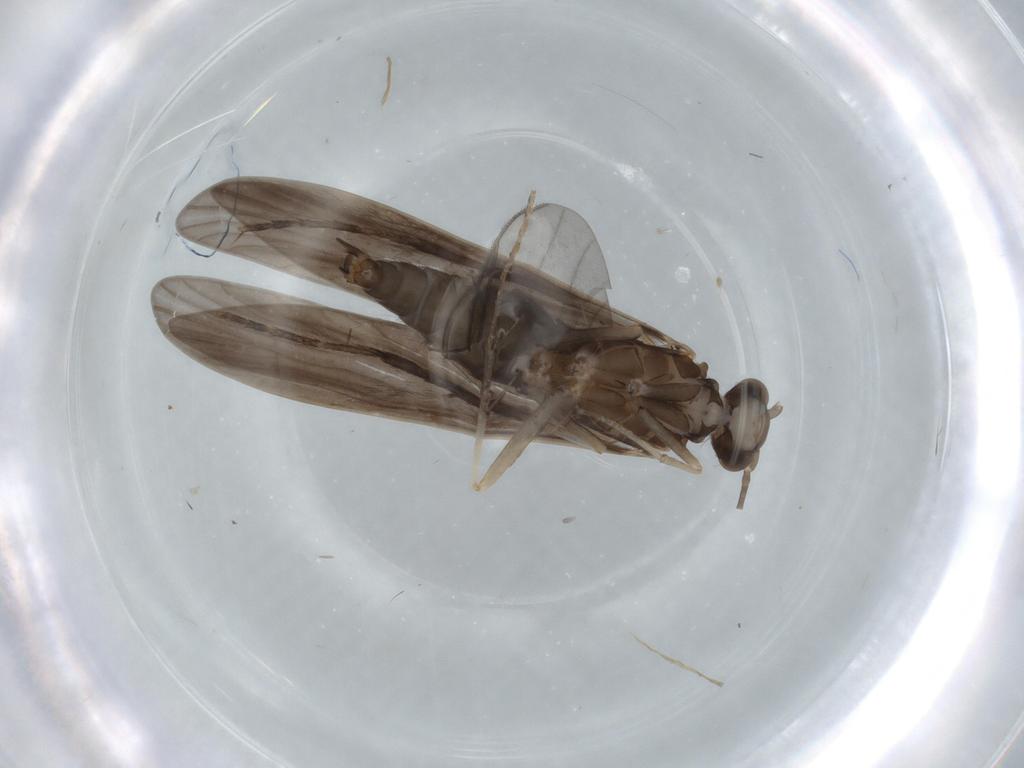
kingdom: Animalia
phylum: Arthropoda
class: Insecta
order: Trichoptera
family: Xiphocentronidae
